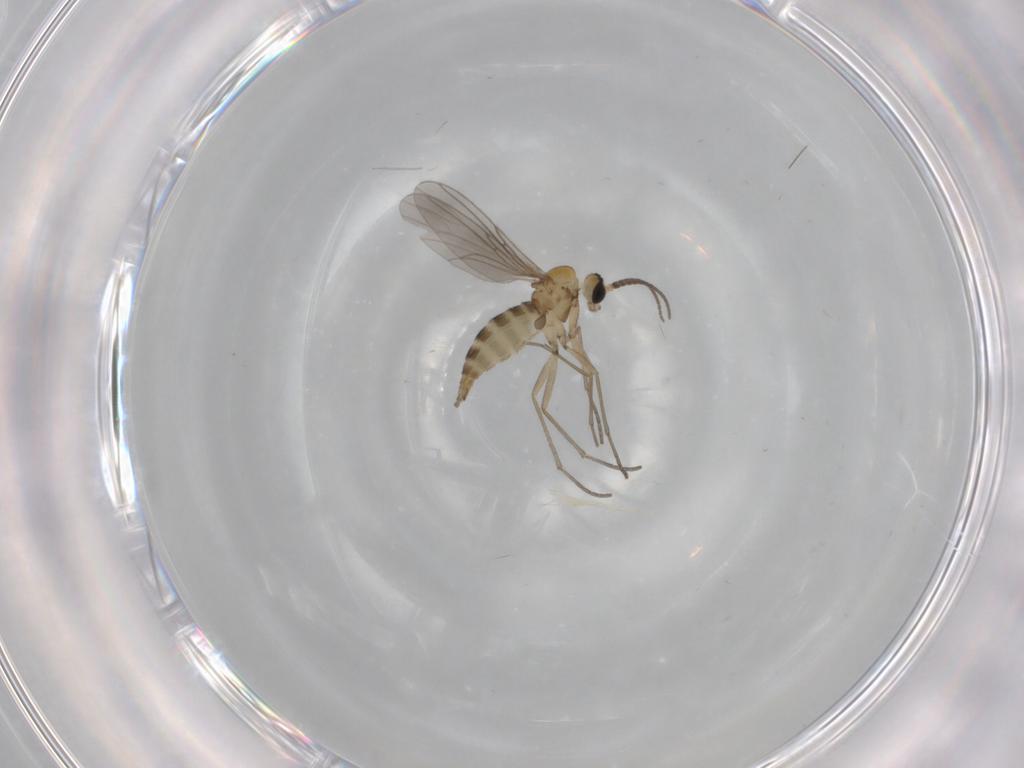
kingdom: Animalia
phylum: Arthropoda
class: Insecta
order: Diptera
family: Sciaridae
